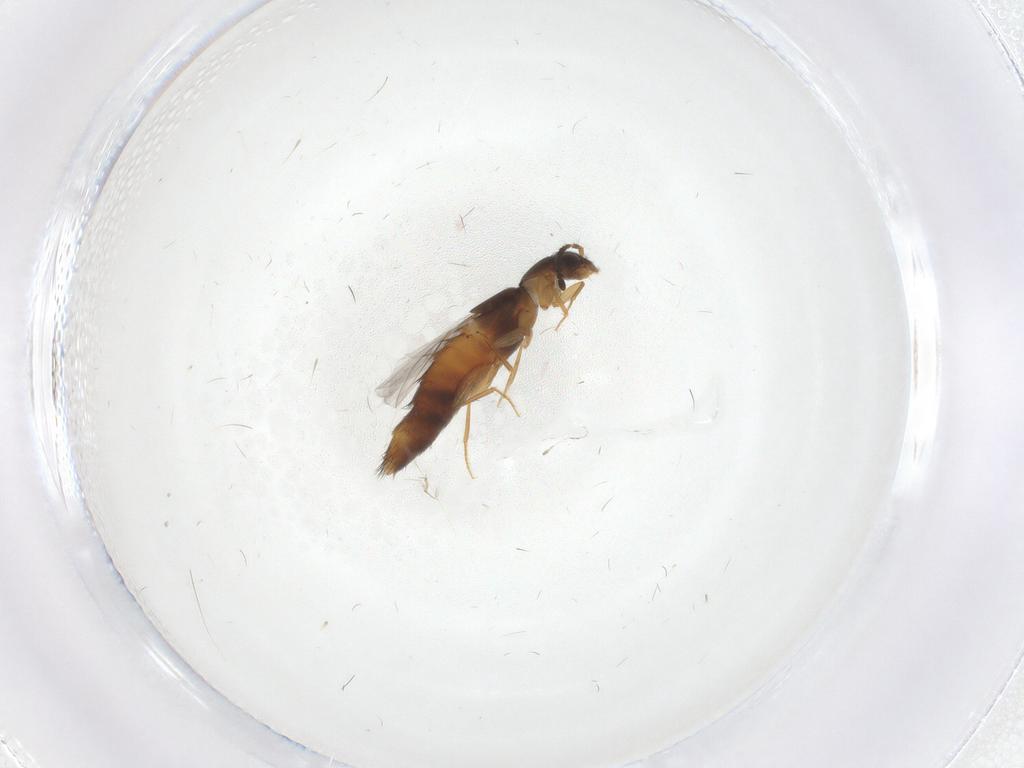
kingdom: Animalia
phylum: Arthropoda
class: Insecta
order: Coleoptera
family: Staphylinidae
